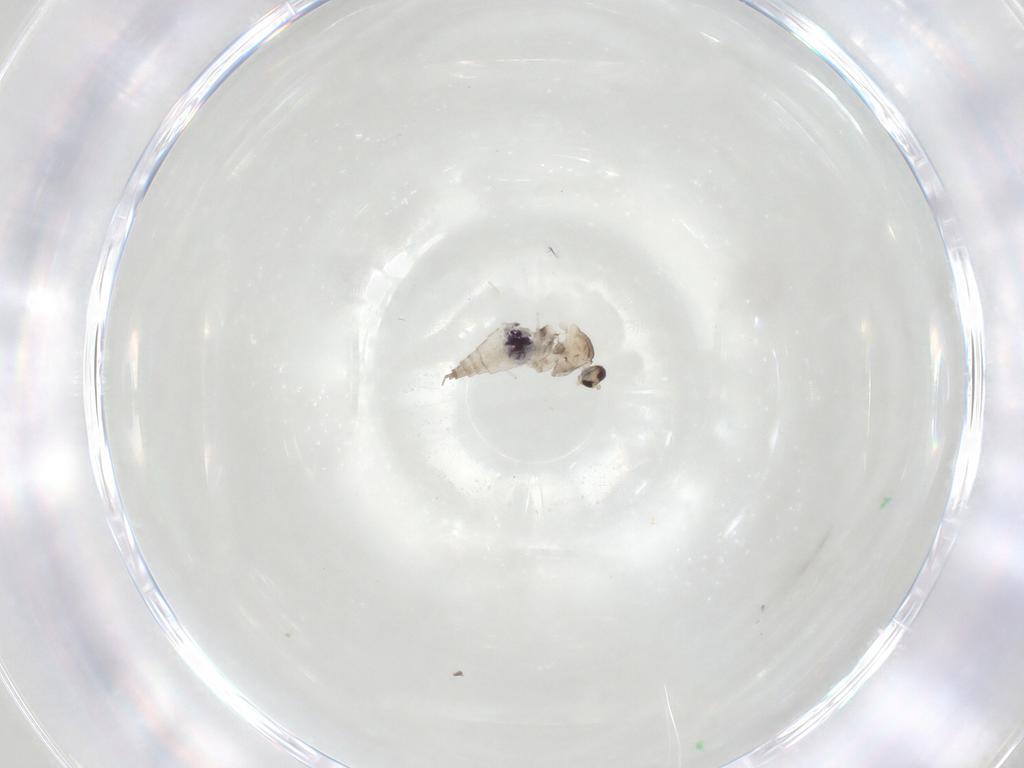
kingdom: Animalia
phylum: Arthropoda
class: Insecta
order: Diptera
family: Cecidomyiidae
